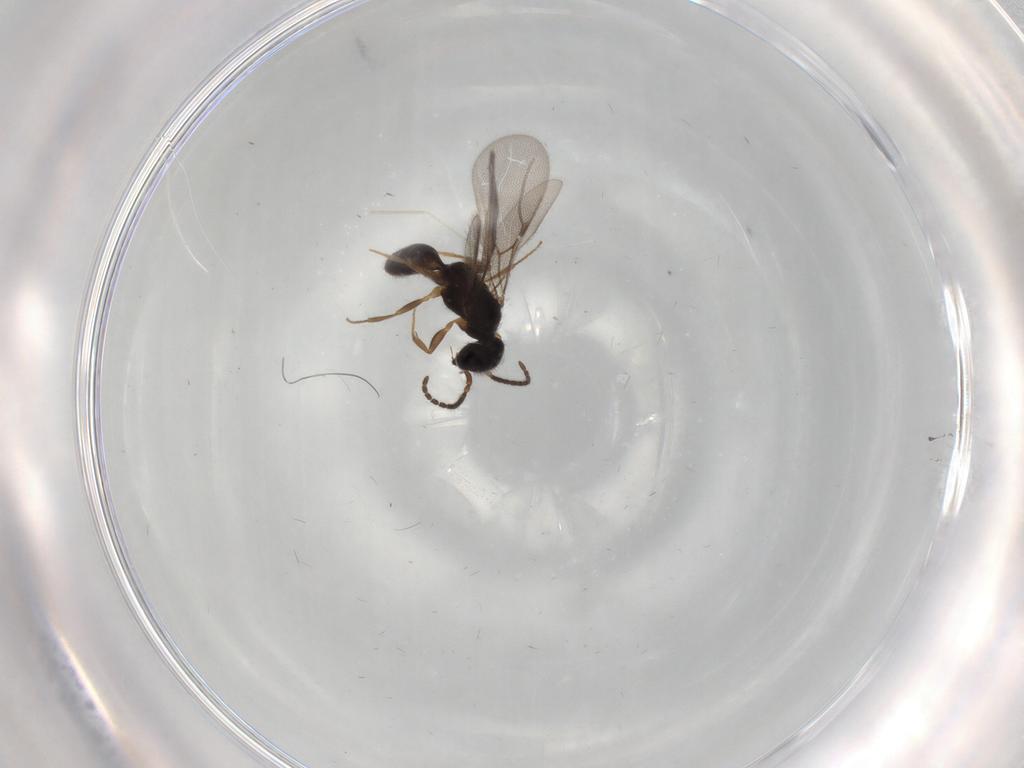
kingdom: Animalia
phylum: Arthropoda
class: Insecta
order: Hymenoptera
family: Bethylidae
